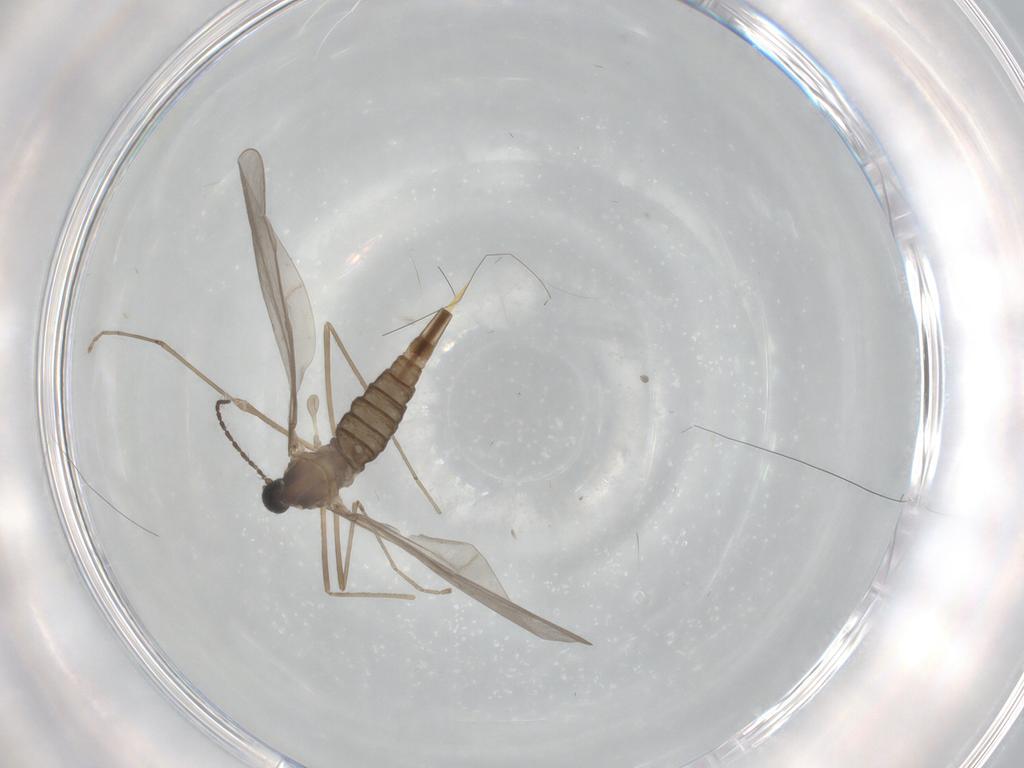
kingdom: Animalia
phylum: Arthropoda
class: Insecta
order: Diptera
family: Cecidomyiidae
